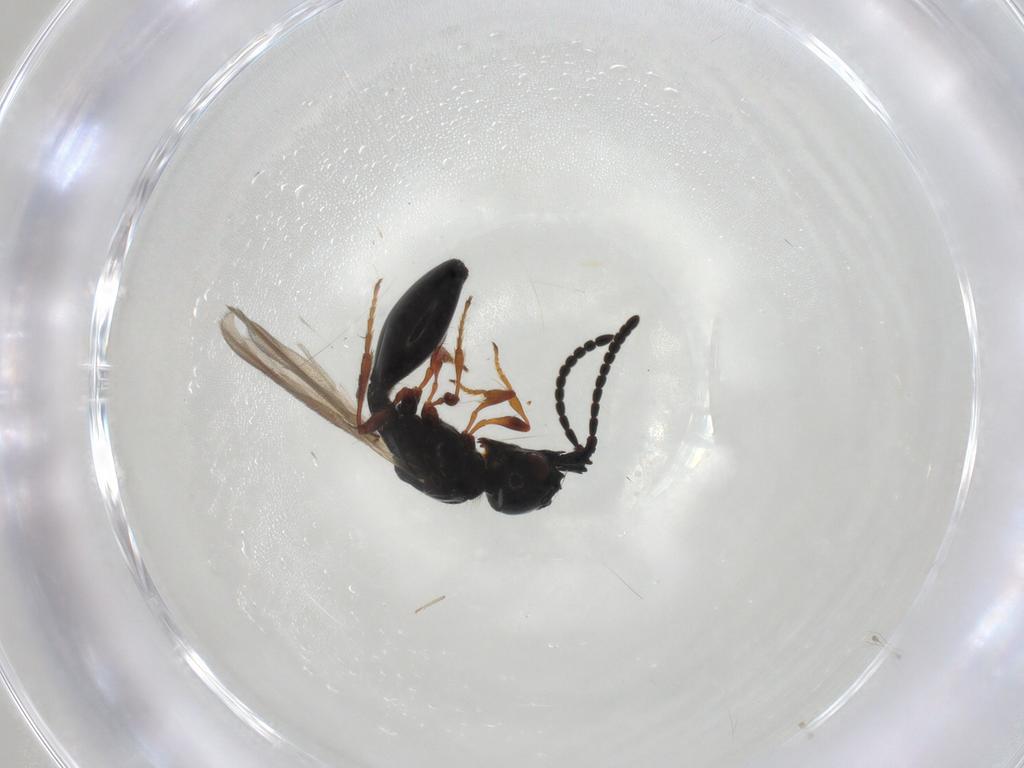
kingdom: Animalia
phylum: Arthropoda
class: Insecta
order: Hymenoptera
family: Diapriidae
